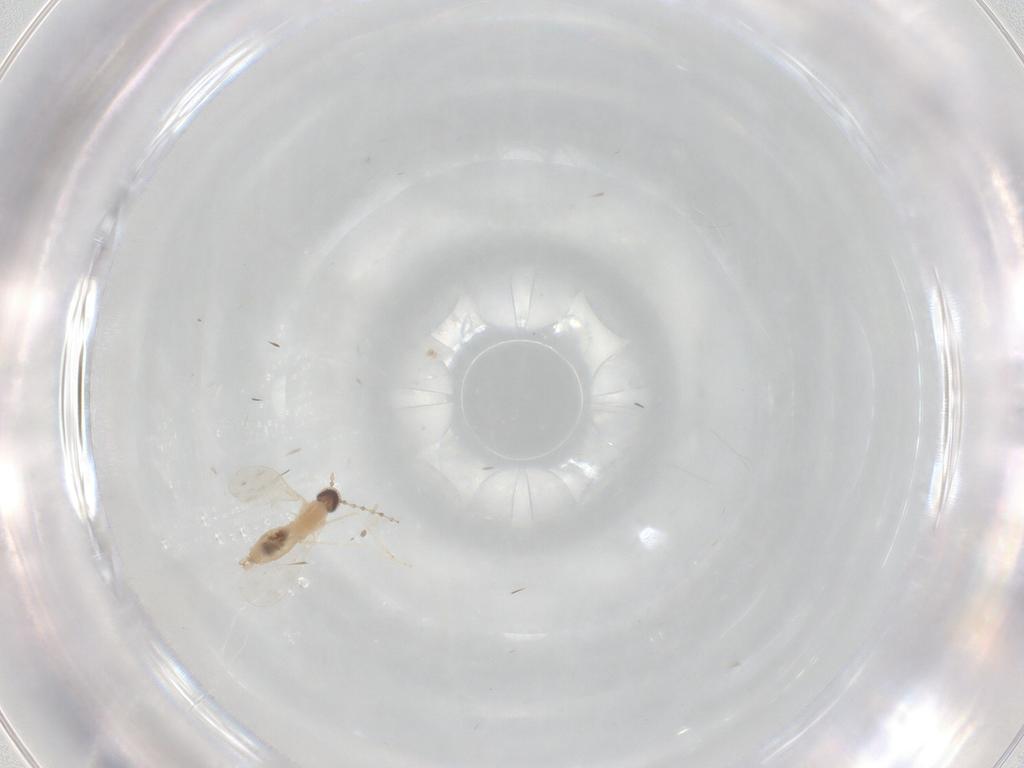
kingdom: Animalia
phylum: Arthropoda
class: Insecta
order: Diptera
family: Cecidomyiidae
